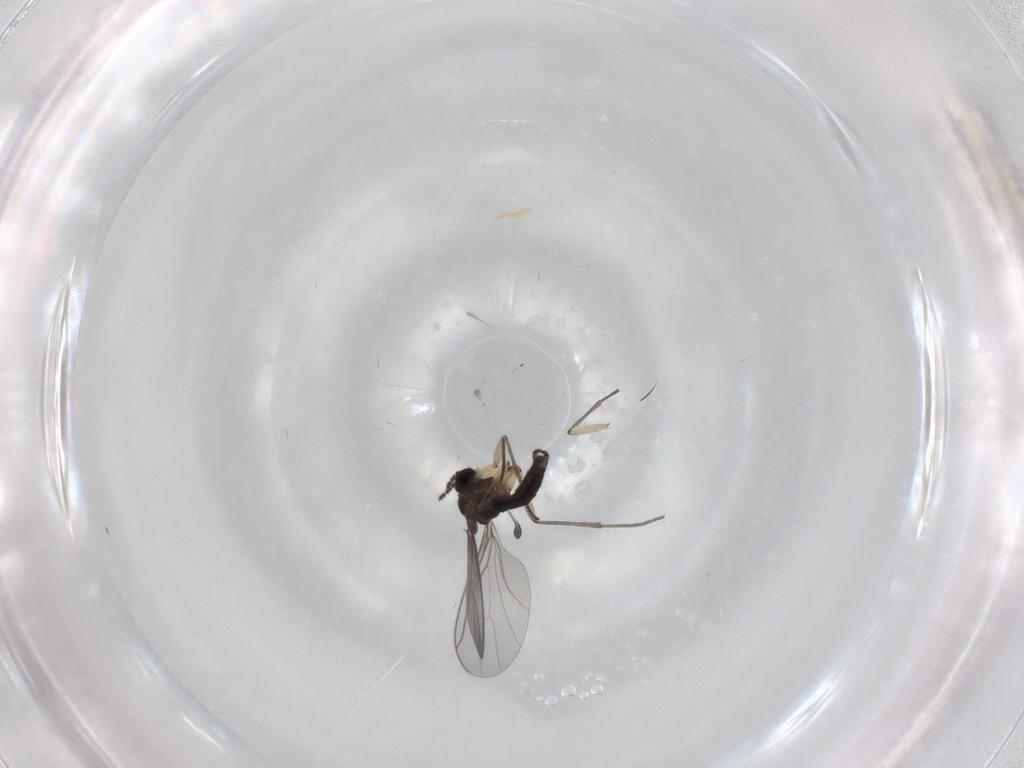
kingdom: Animalia
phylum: Arthropoda
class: Insecta
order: Diptera
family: Sciaridae
